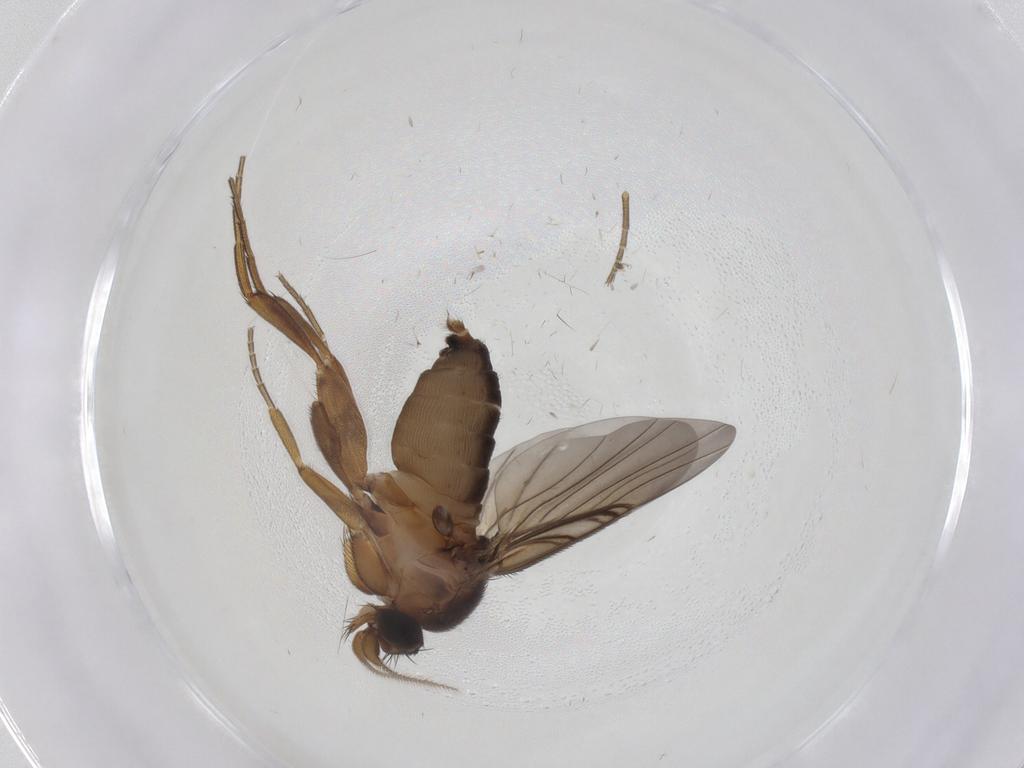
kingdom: Animalia
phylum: Arthropoda
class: Insecta
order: Diptera
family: Phoridae
